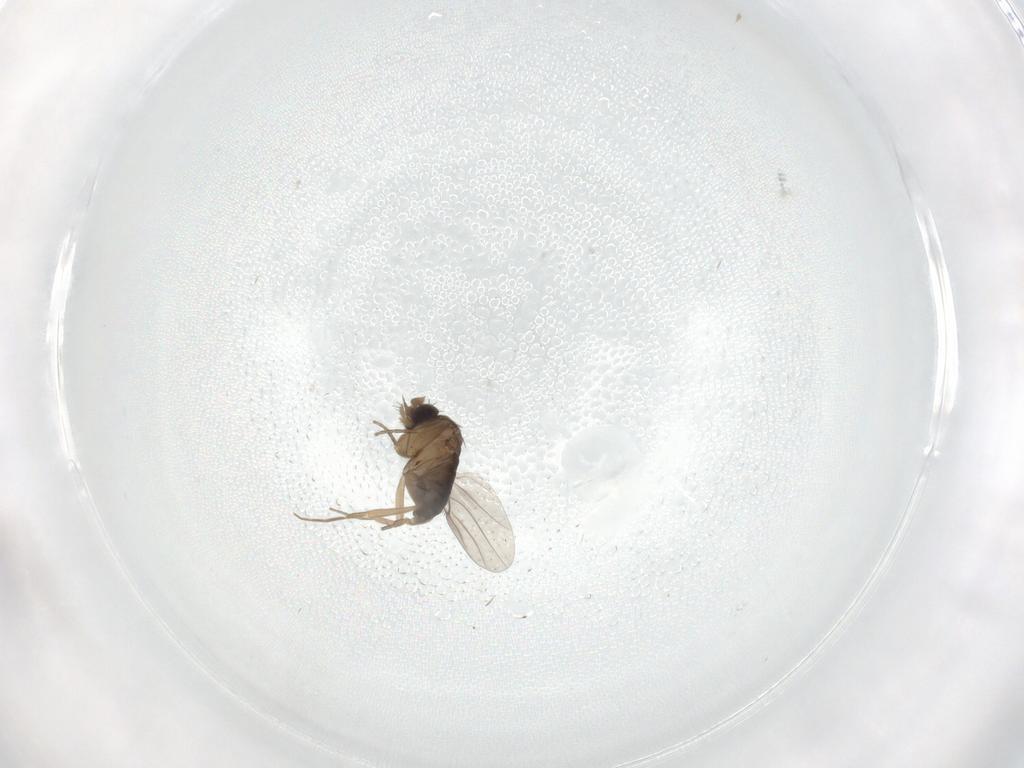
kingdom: Animalia
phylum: Arthropoda
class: Insecta
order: Diptera
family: Phoridae
